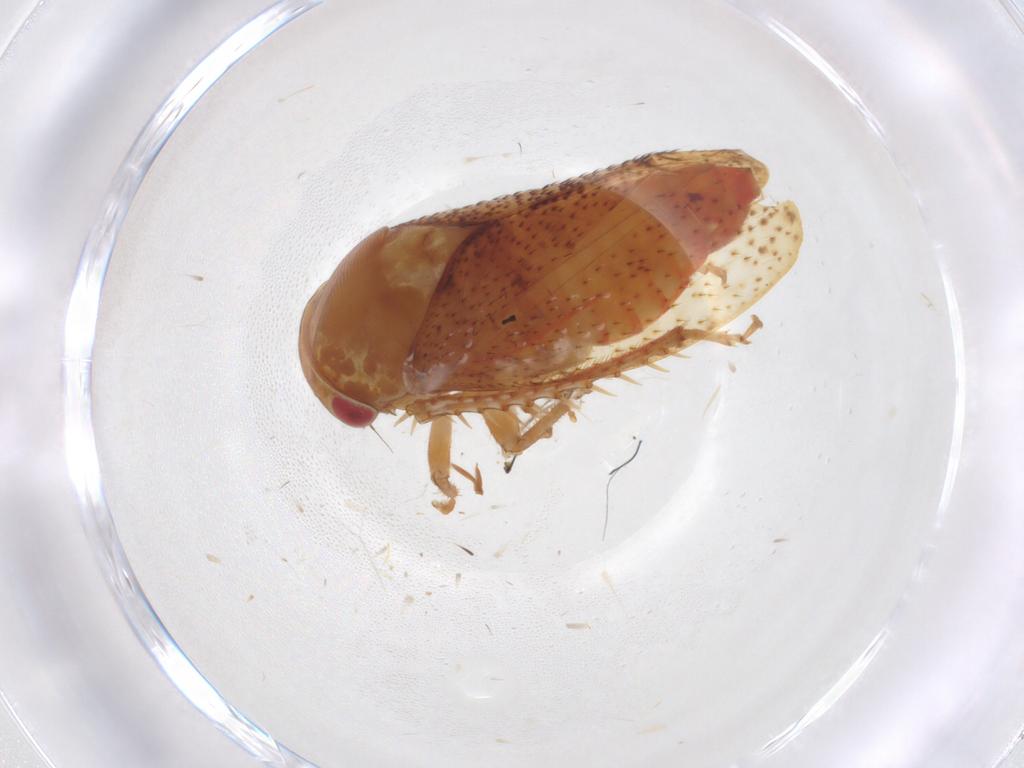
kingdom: Animalia
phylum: Arthropoda
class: Insecta
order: Hemiptera
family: Cicadellidae
